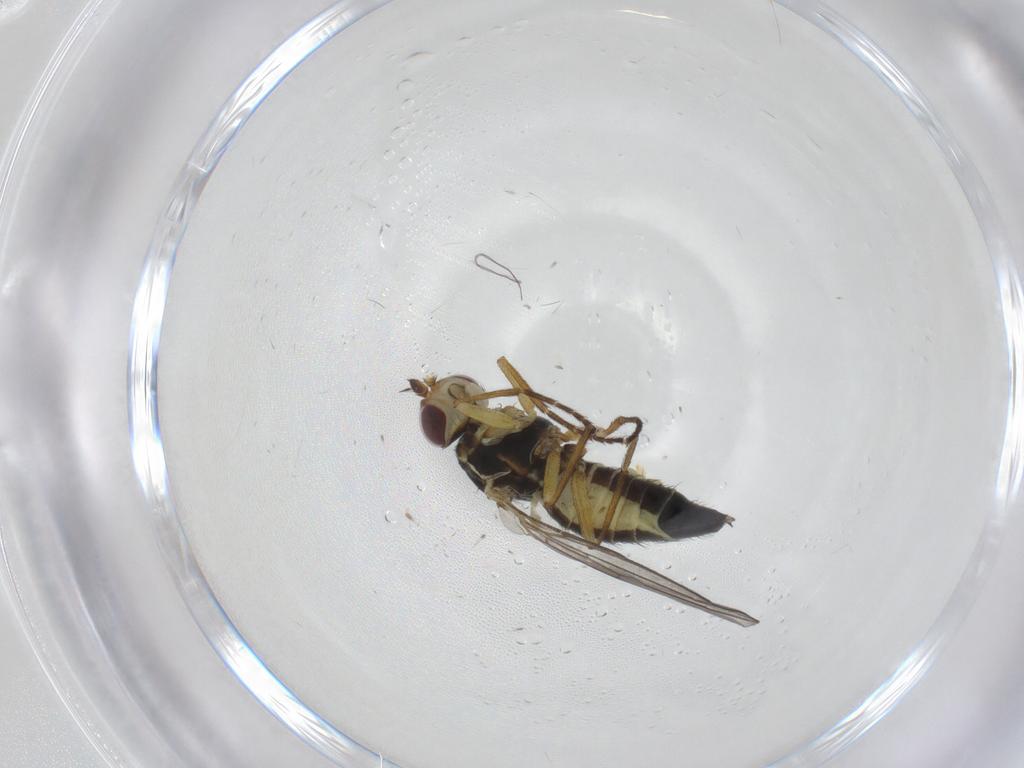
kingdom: Animalia
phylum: Arthropoda
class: Insecta
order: Diptera
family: Agromyzidae
